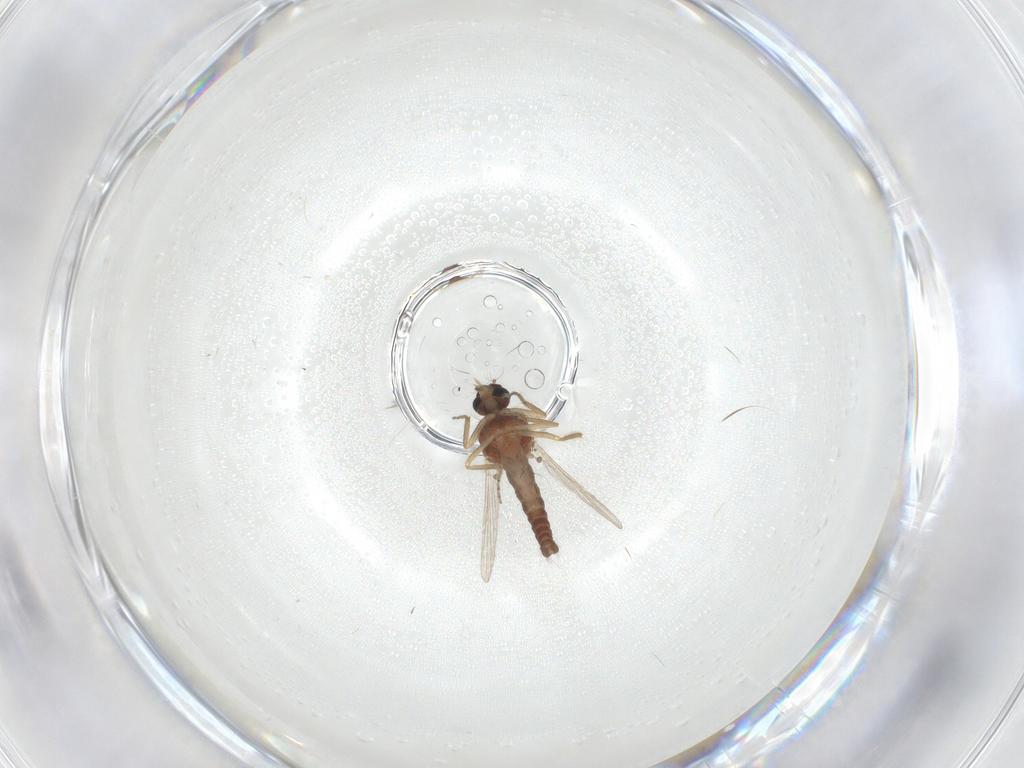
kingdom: Animalia
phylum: Arthropoda
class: Insecta
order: Diptera
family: Ceratopogonidae
